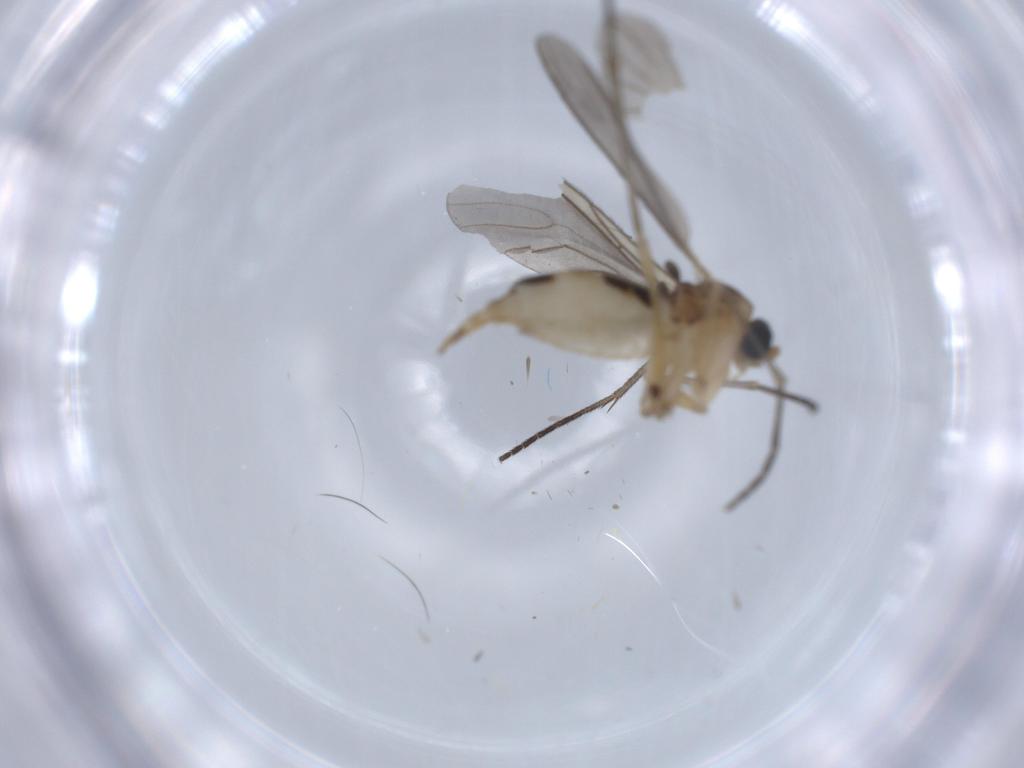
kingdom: Animalia
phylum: Arthropoda
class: Insecta
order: Diptera
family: Sciaridae
